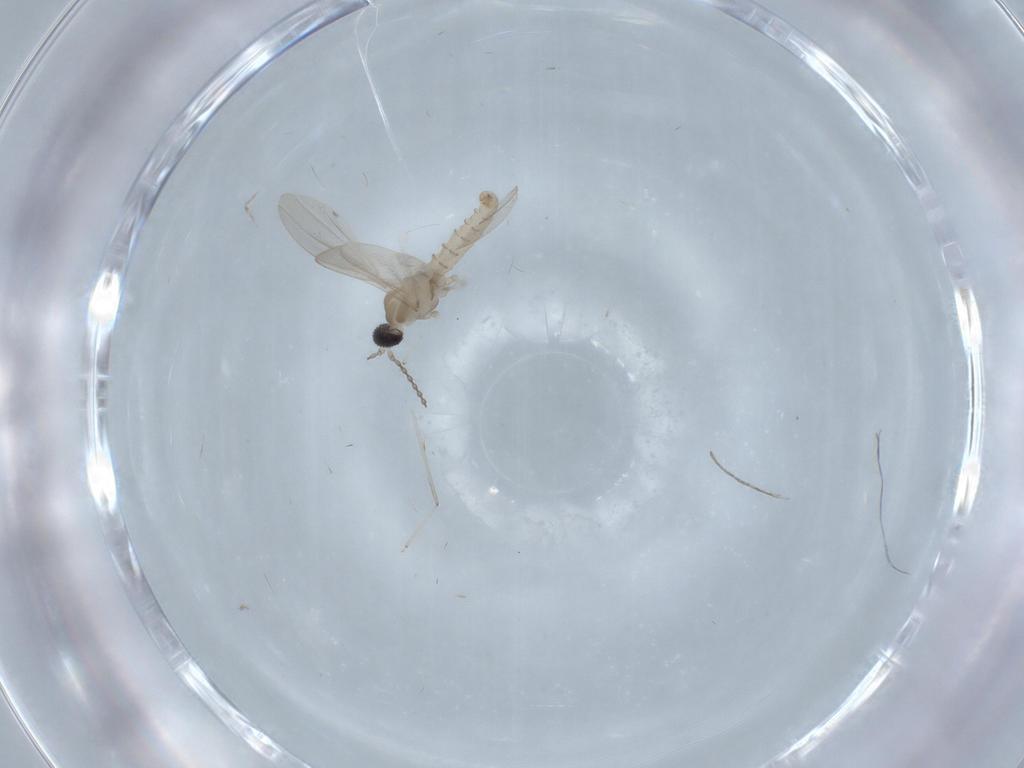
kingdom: Animalia
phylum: Arthropoda
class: Insecta
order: Diptera
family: Cecidomyiidae
